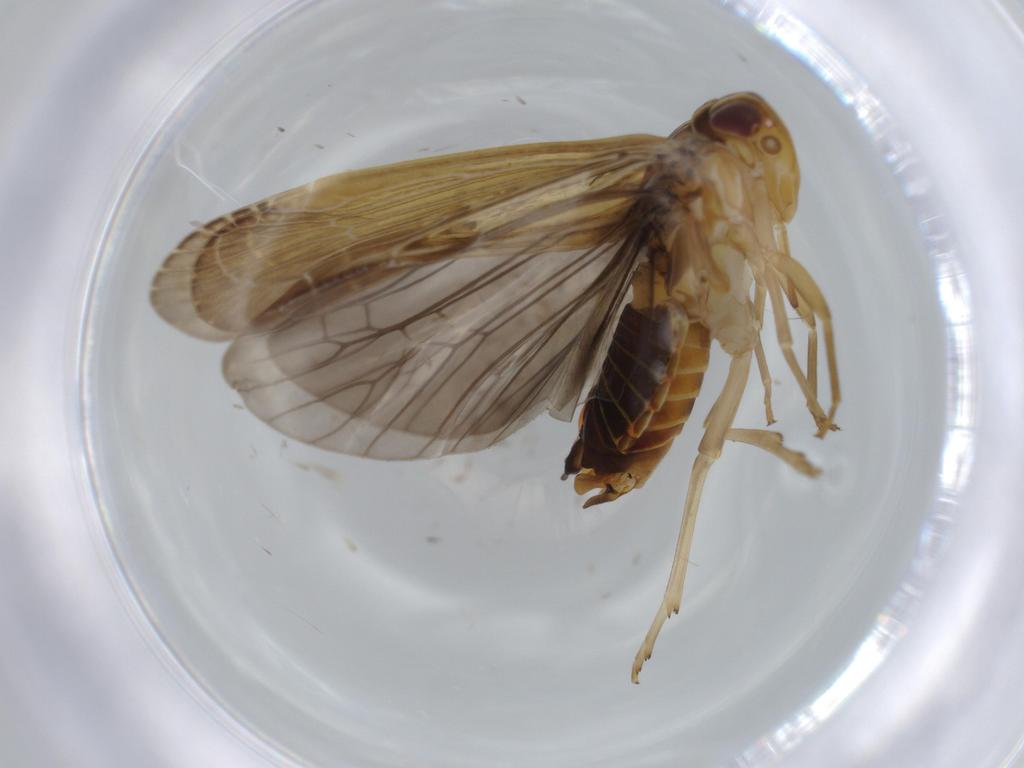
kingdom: Animalia
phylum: Arthropoda
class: Insecta
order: Hemiptera
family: Achilidae
